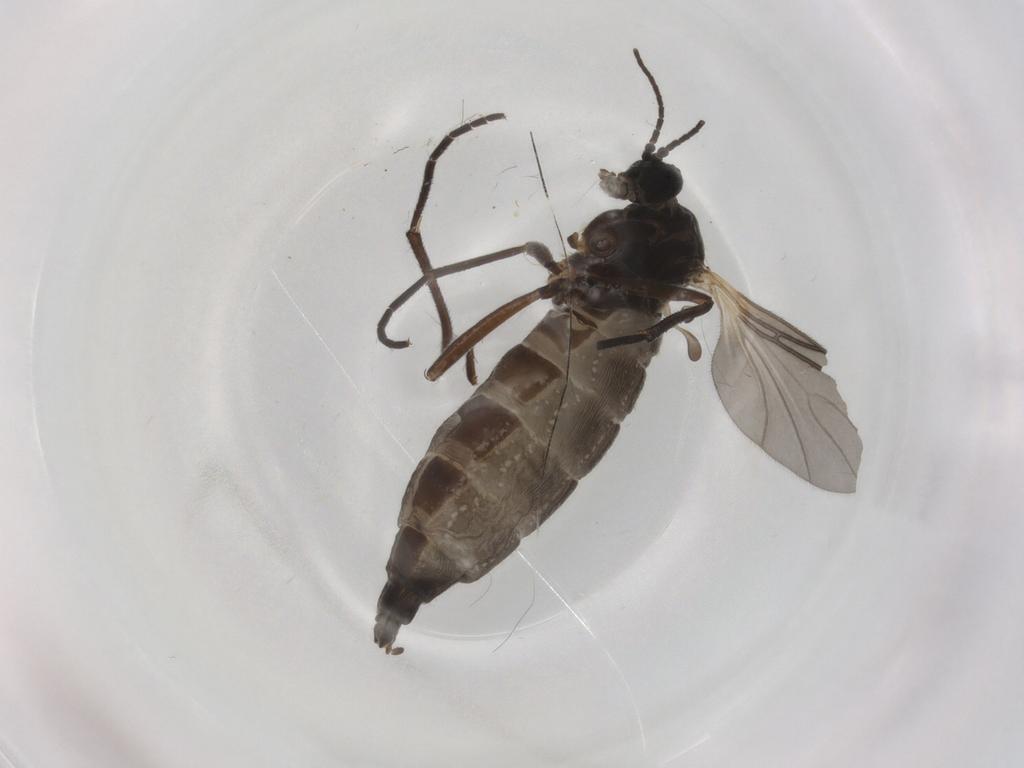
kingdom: Animalia
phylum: Arthropoda
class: Insecta
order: Diptera
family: Sciaridae
